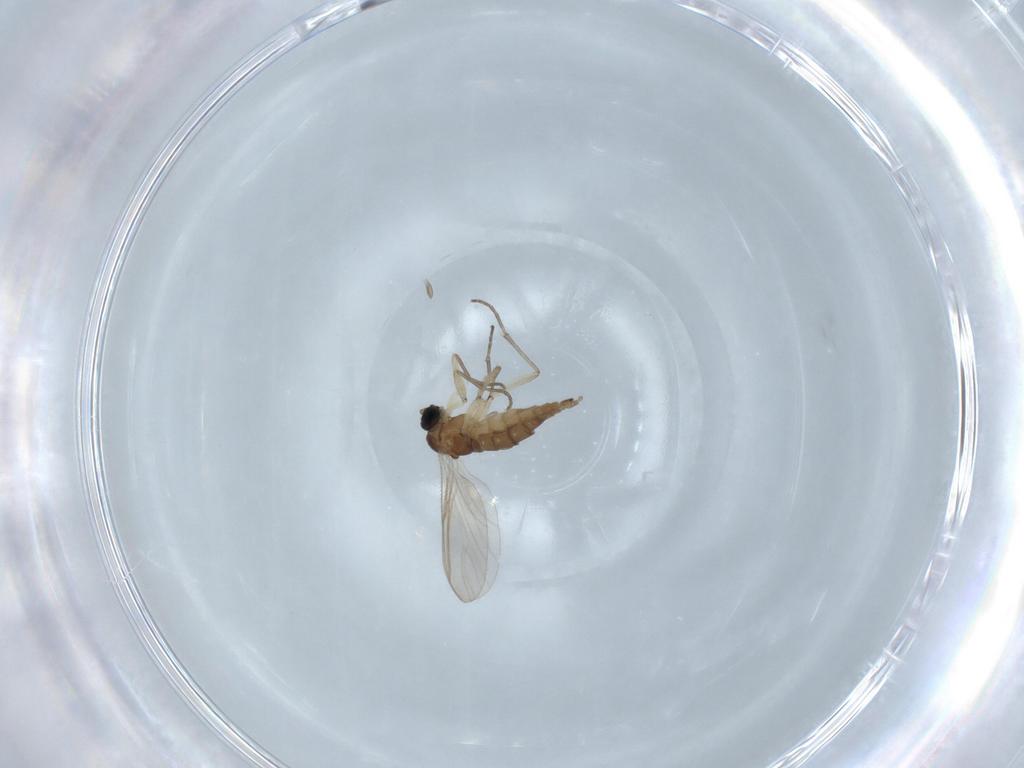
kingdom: Animalia
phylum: Arthropoda
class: Insecta
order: Diptera
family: Sciaridae
